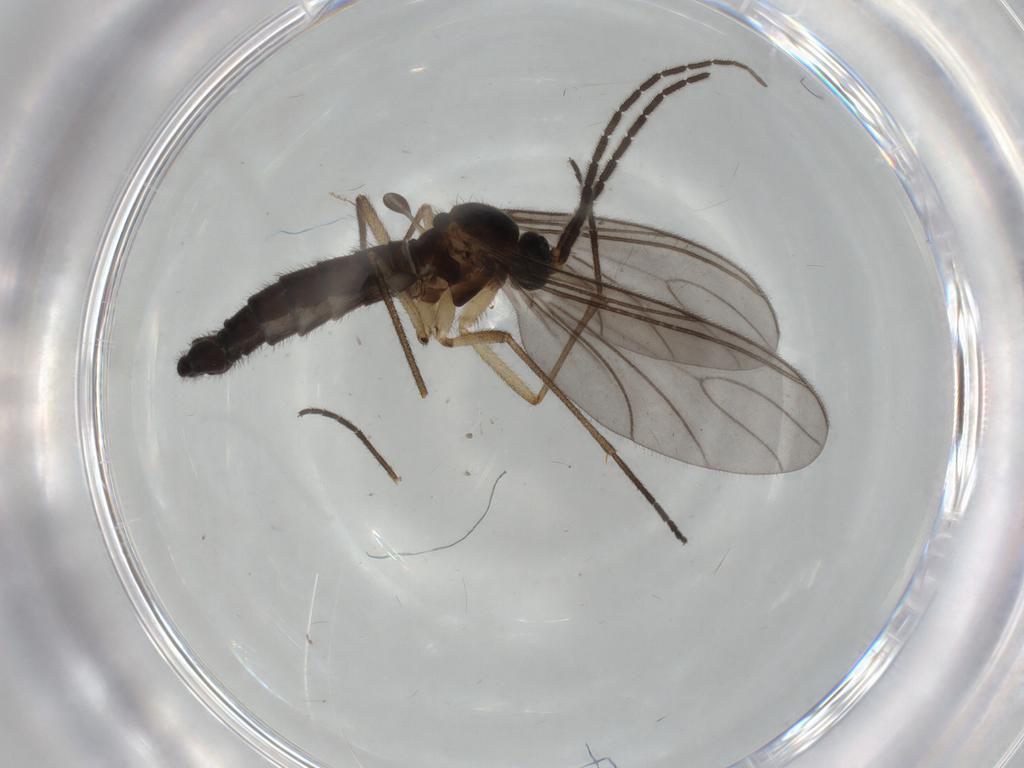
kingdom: Animalia
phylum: Arthropoda
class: Insecta
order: Diptera
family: Sciaridae
